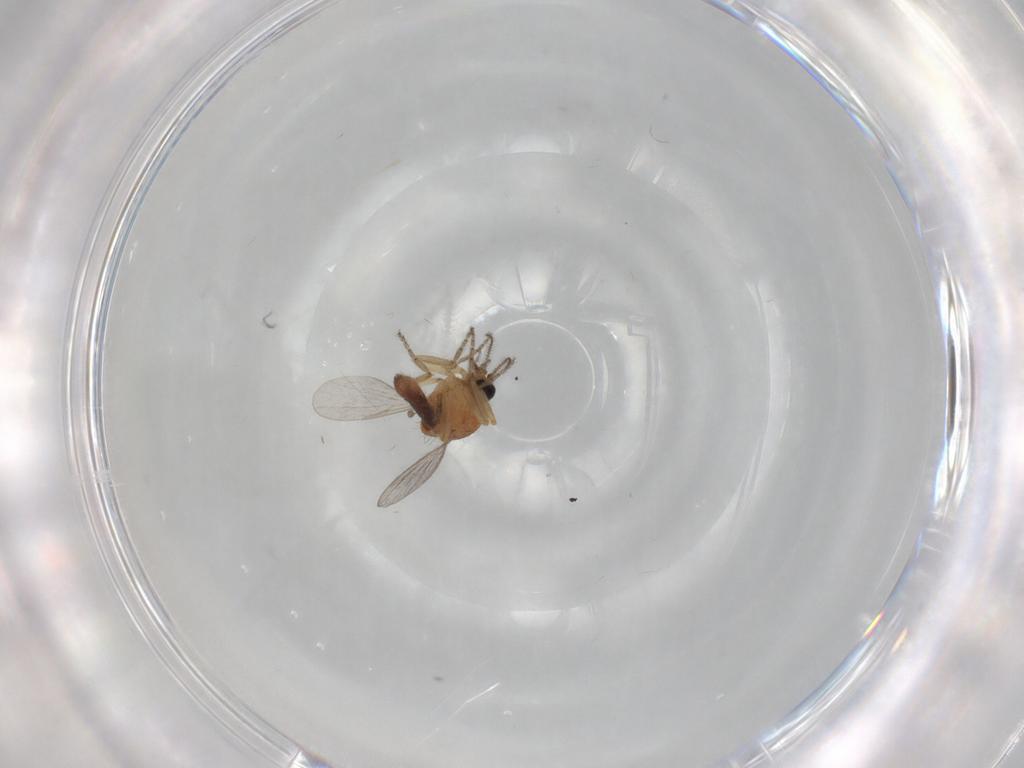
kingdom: Animalia
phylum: Arthropoda
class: Insecta
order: Diptera
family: Ceratopogonidae
